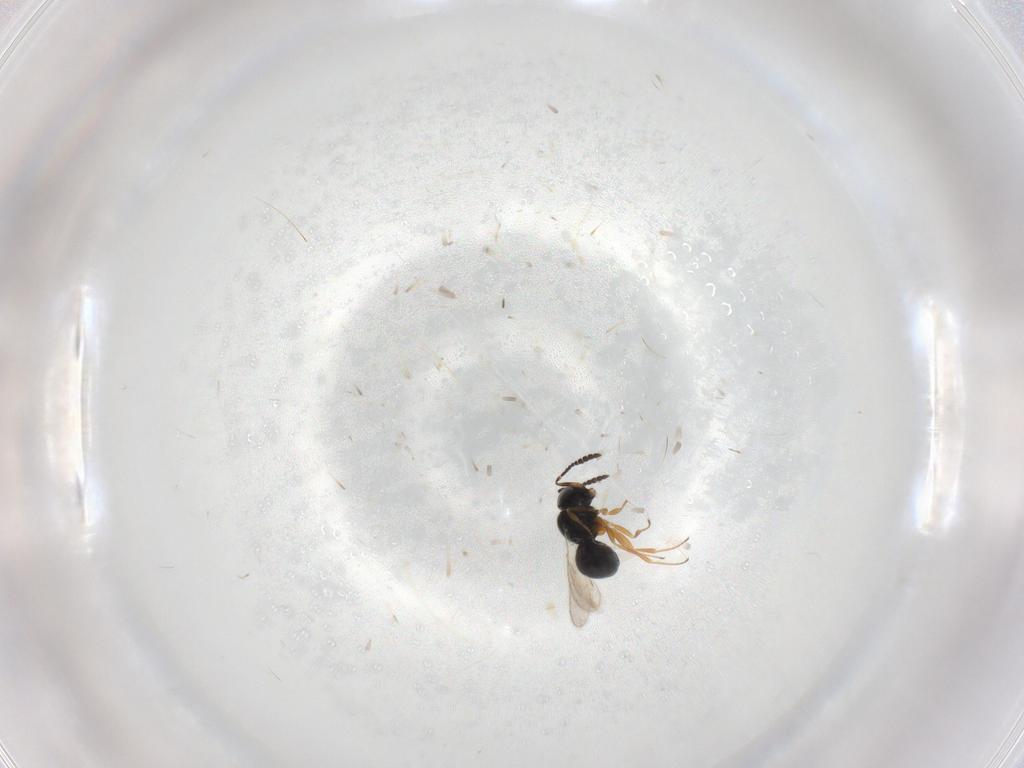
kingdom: Animalia
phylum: Arthropoda
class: Insecta
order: Hymenoptera
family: Scelionidae
